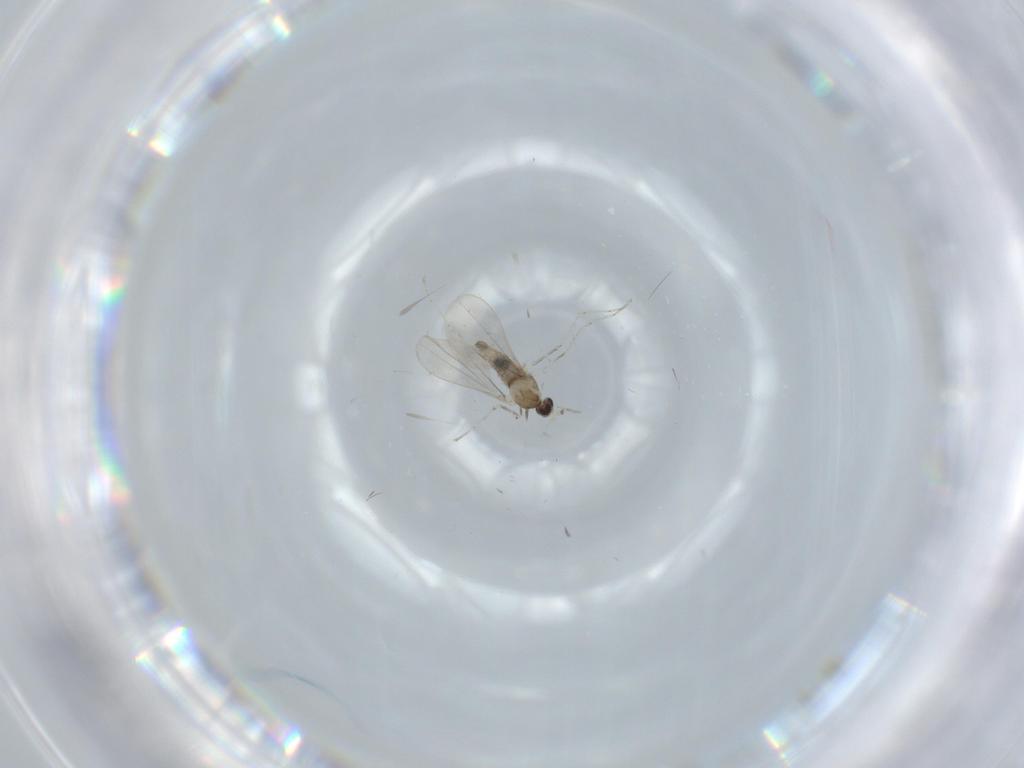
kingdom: Animalia
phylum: Arthropoda
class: Insecta
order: Diptera
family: Cecidomyiidae
